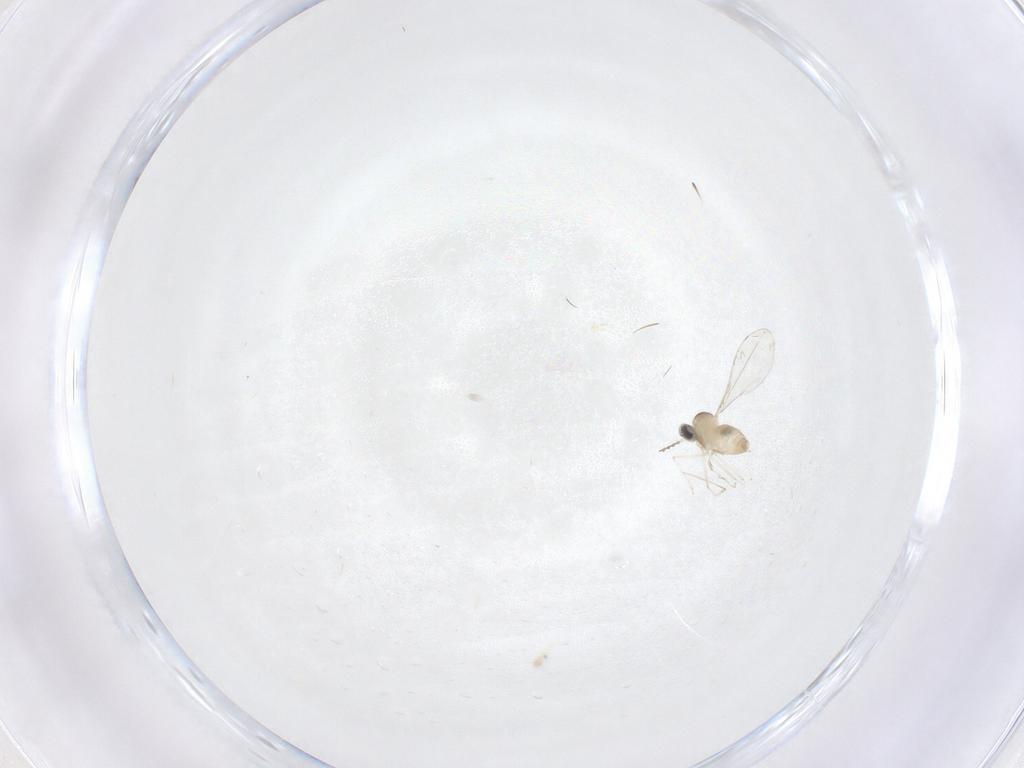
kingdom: Animalia
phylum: Arthropoda
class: Insecta
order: Diptera
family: Cecidomyiidae
